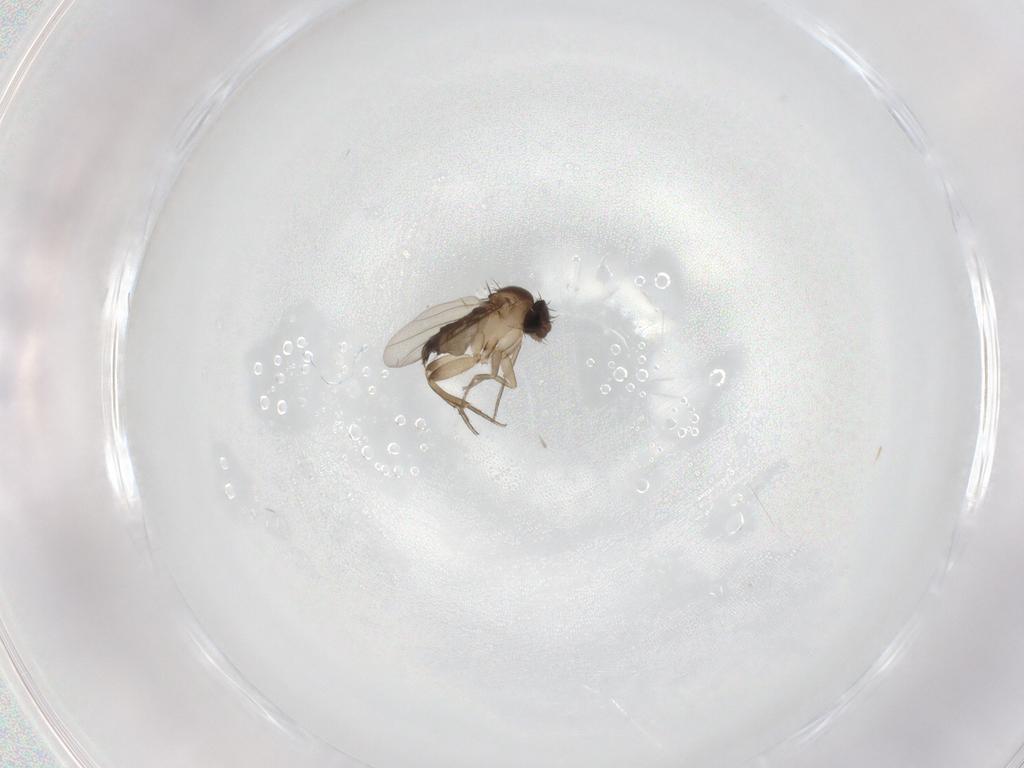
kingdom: Animalia
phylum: Arthropoda
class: Insecta
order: Diptera
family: Phoridae
